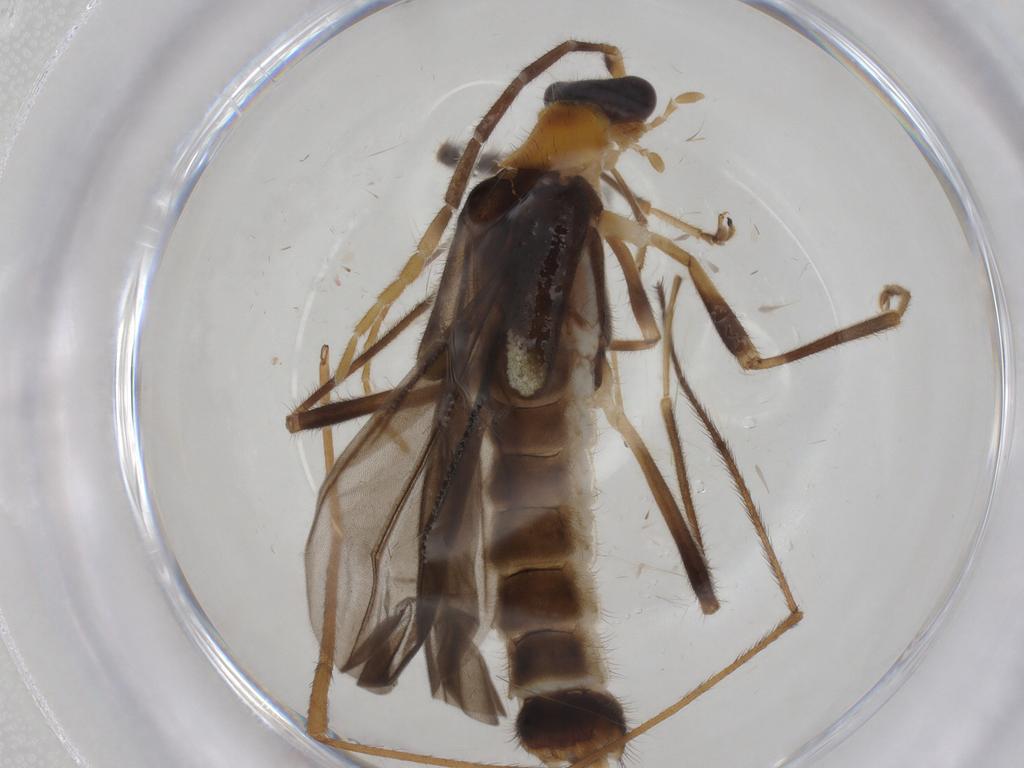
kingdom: Animalia
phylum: Arthropoda
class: Insecta
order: Coleoptera
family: Cantharidae
